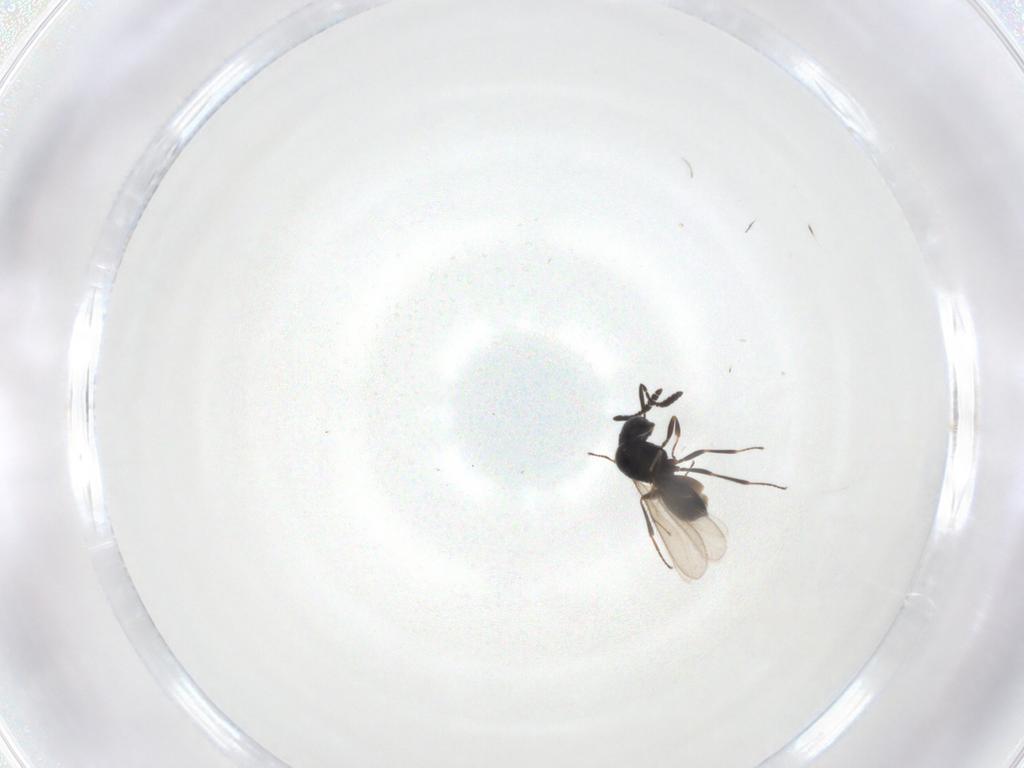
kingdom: Animalia
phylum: Arthropoda
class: Insecta
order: Hymenoptera
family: Scelionidae
